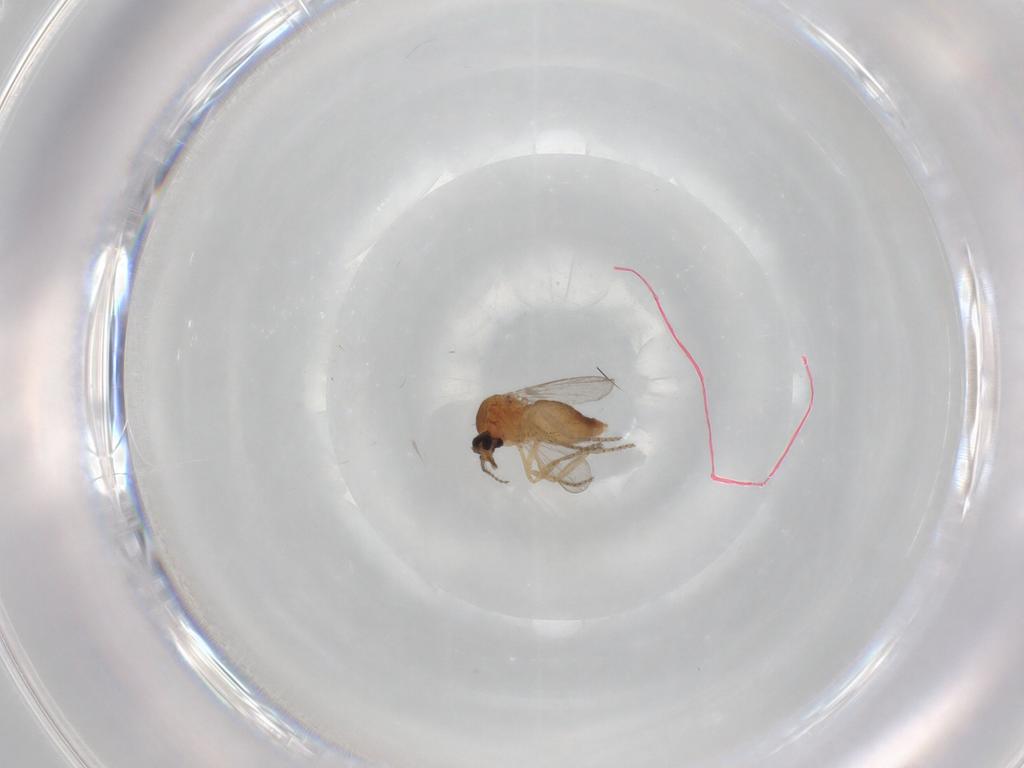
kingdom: Animalia
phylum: Arthropoda
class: Insecta
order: Diptera
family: Ceratopogonidae
